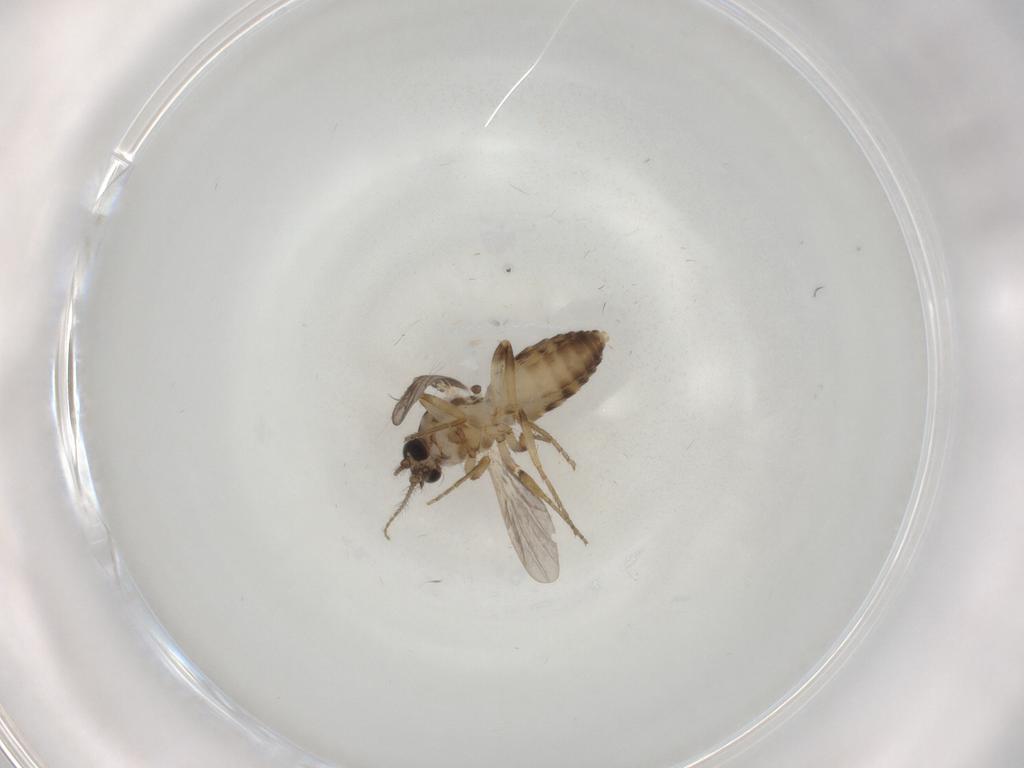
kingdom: Animalia
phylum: Arthropoda
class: Insecta
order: Diptera
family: Ceratopogonidae
